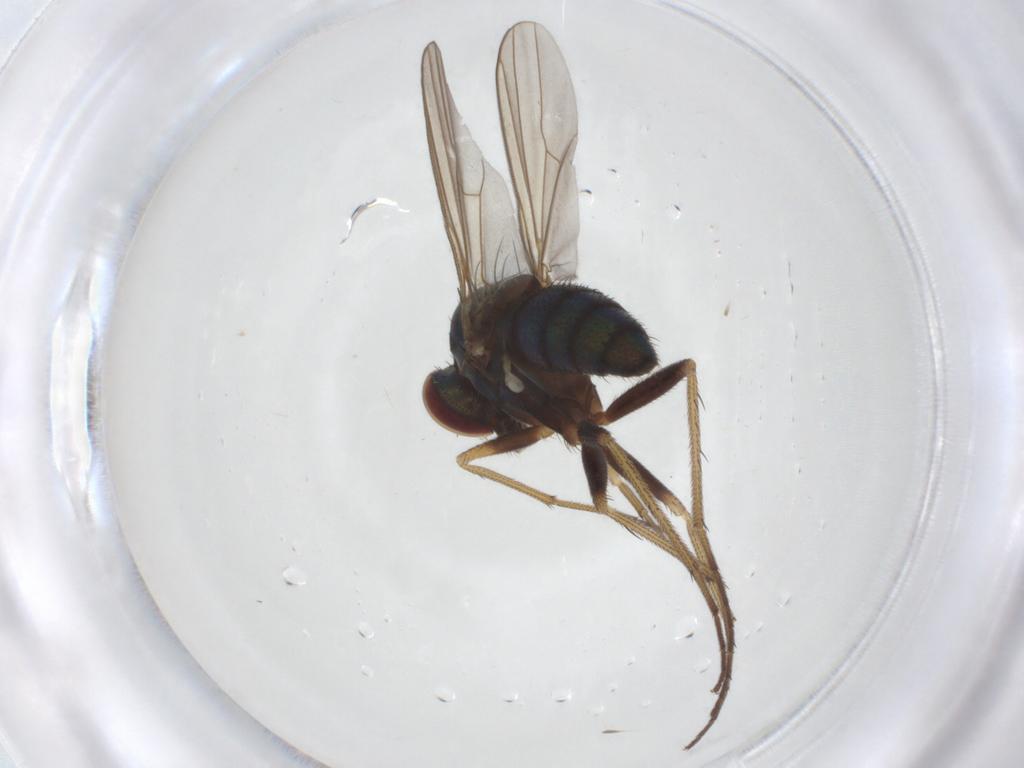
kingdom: Animalia
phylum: Arthropoda
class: Insecta
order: Diptera
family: Dolichopodidae
